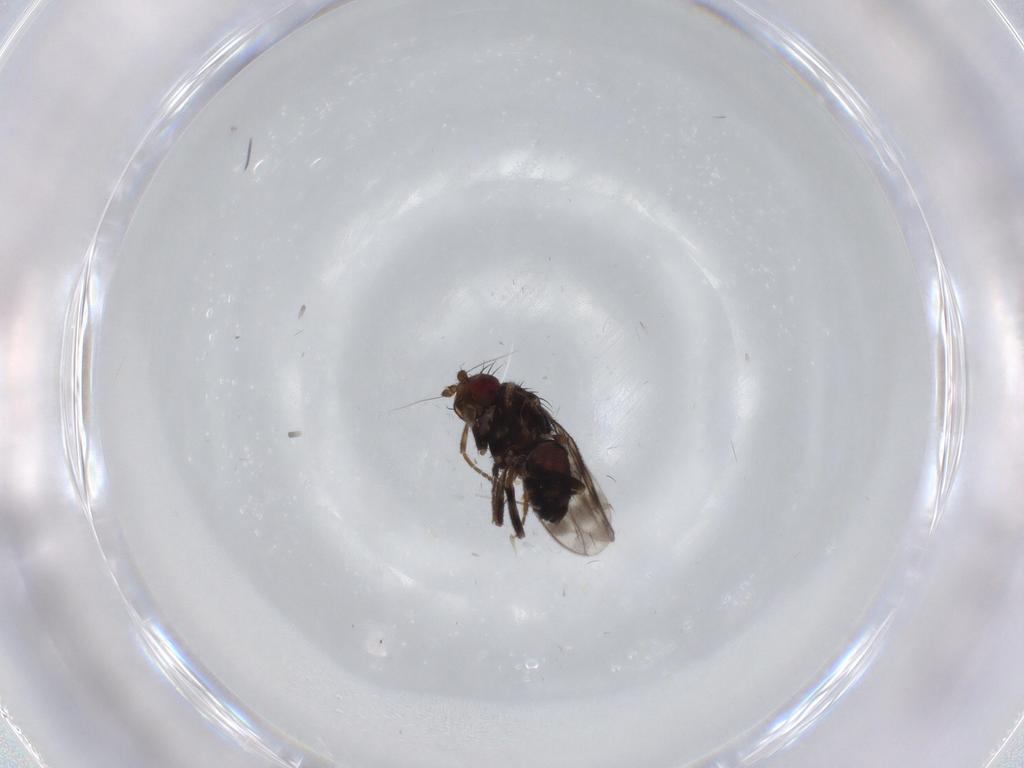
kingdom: Animalia
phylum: Arthropoda
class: Insecta
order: Diptera
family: Sphaeroceridae
